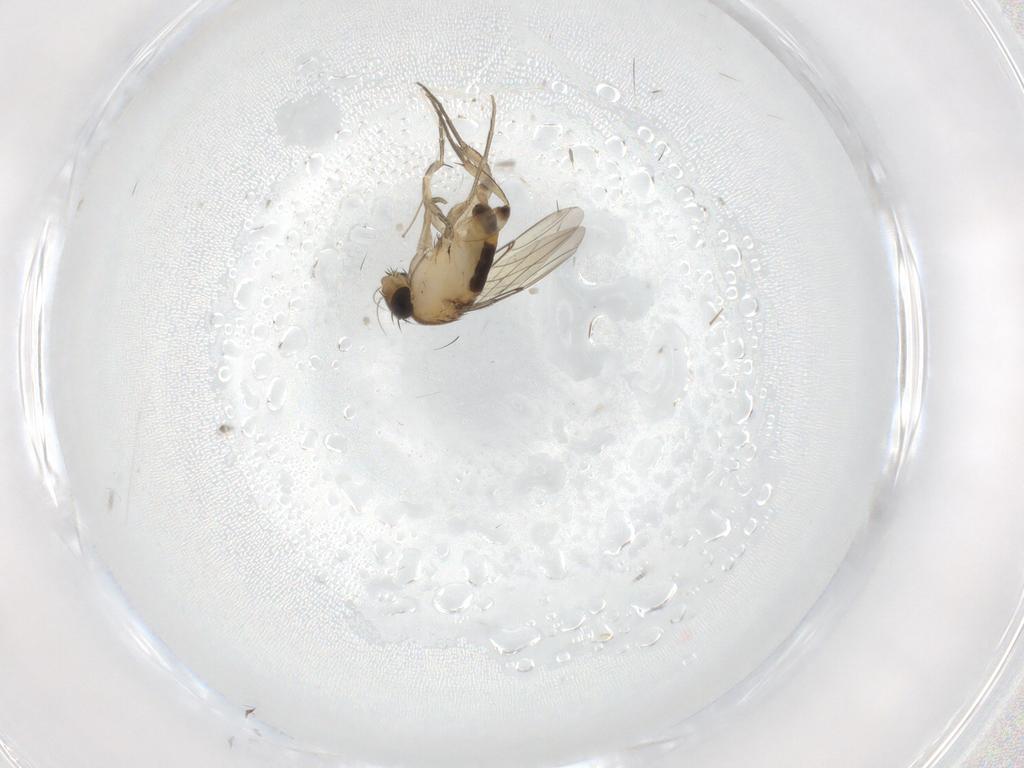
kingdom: Animalia
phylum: Arthropoda
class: Insecta
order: Diptera
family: Phoridae
